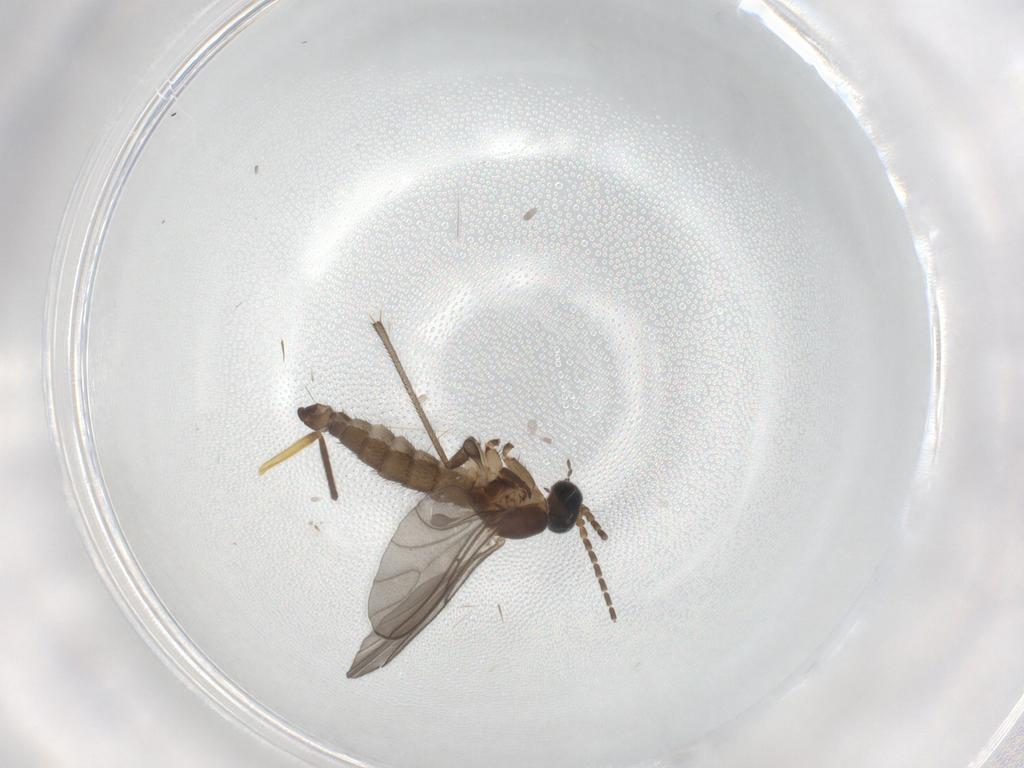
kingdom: Animalia
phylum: Arthropoda
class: Insecta
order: Diptera
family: Sciaridae
